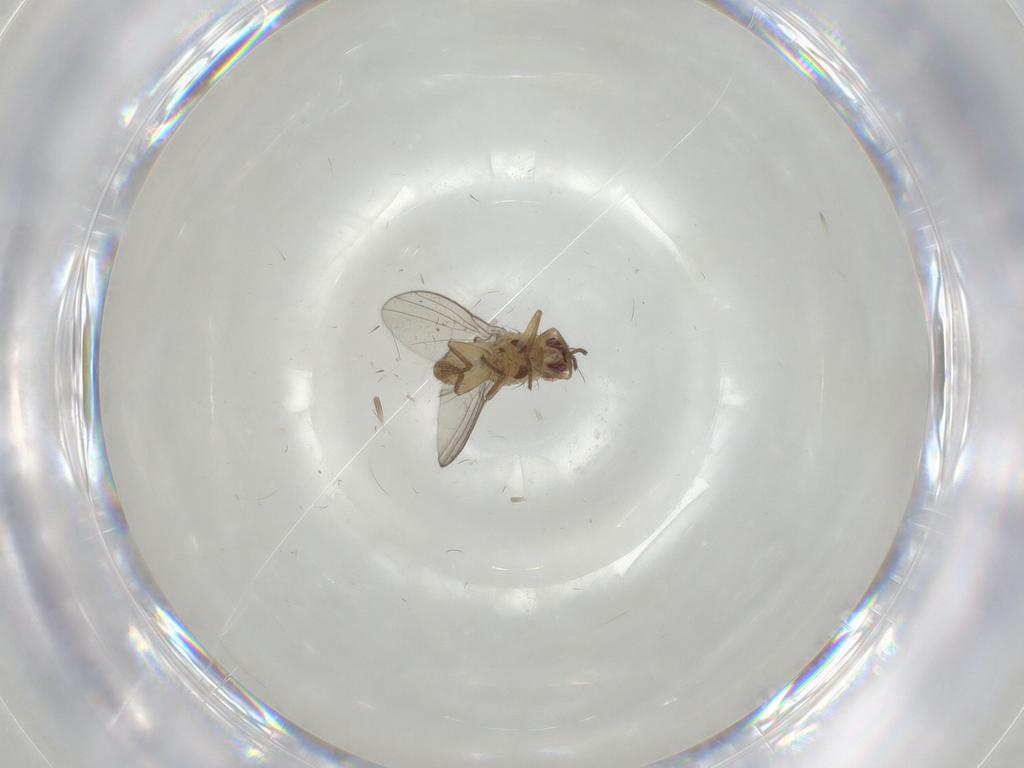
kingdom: Animalia
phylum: Arthropoda
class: Insecta
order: Diptera
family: Agromyzidae
